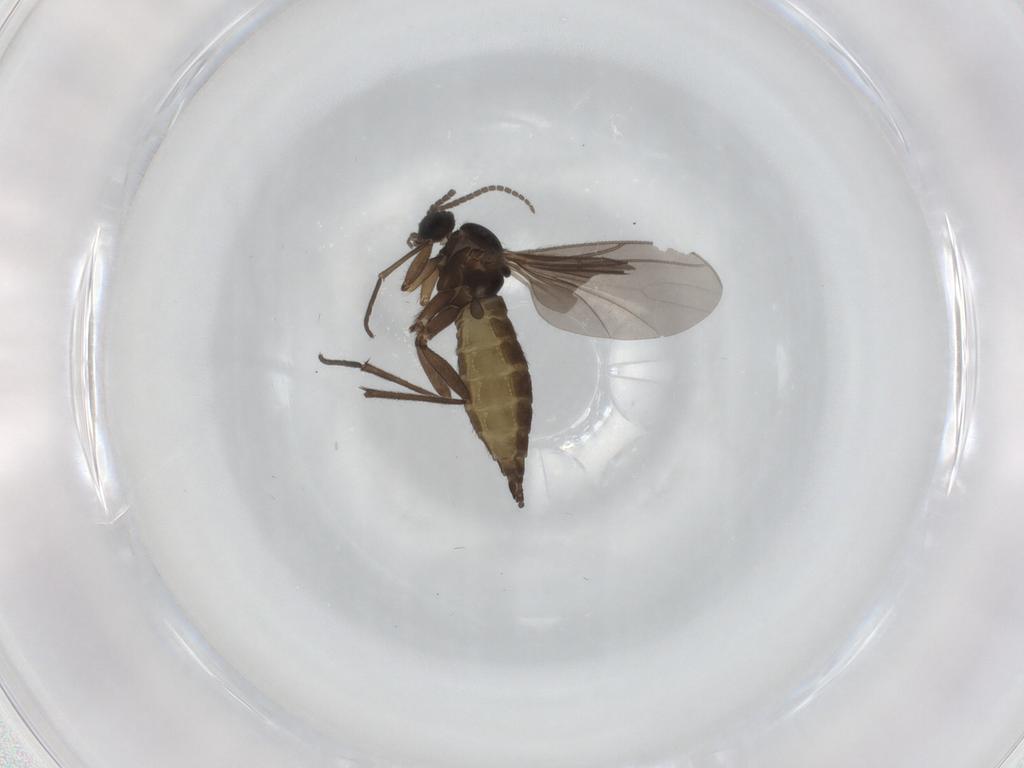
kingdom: Animalia
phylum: Arthropoda
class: Insecta
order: Diptera
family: Sciaridae
